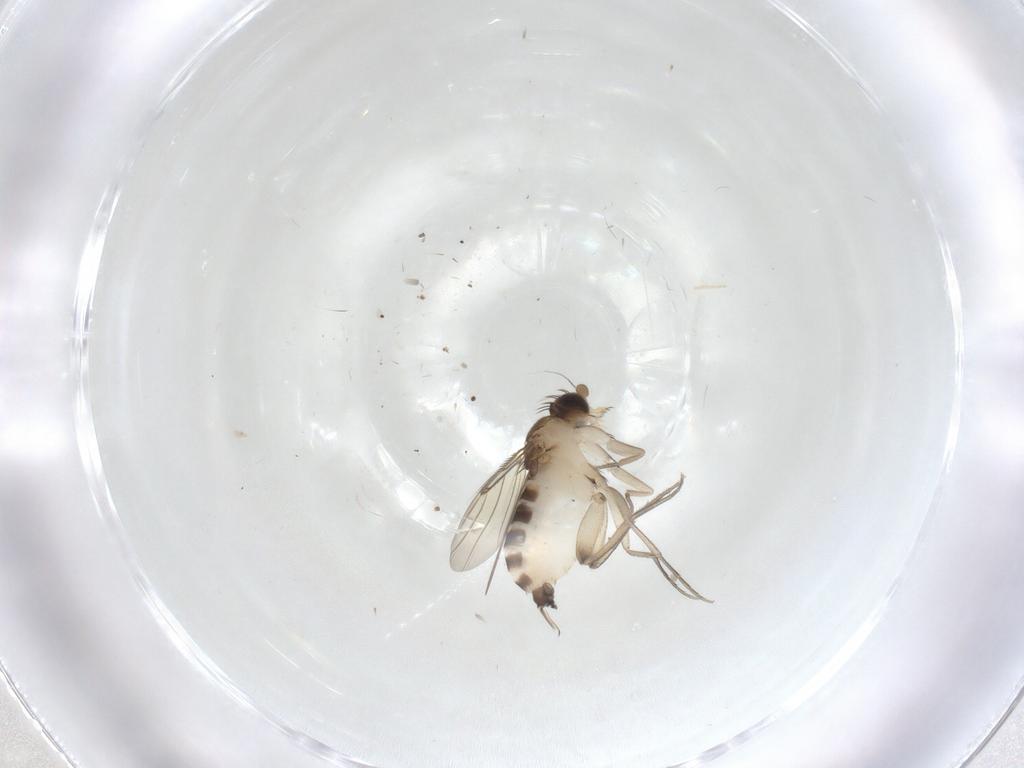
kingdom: Animalia
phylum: Arthropoda
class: Insecta
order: Diptera
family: Phoridae
